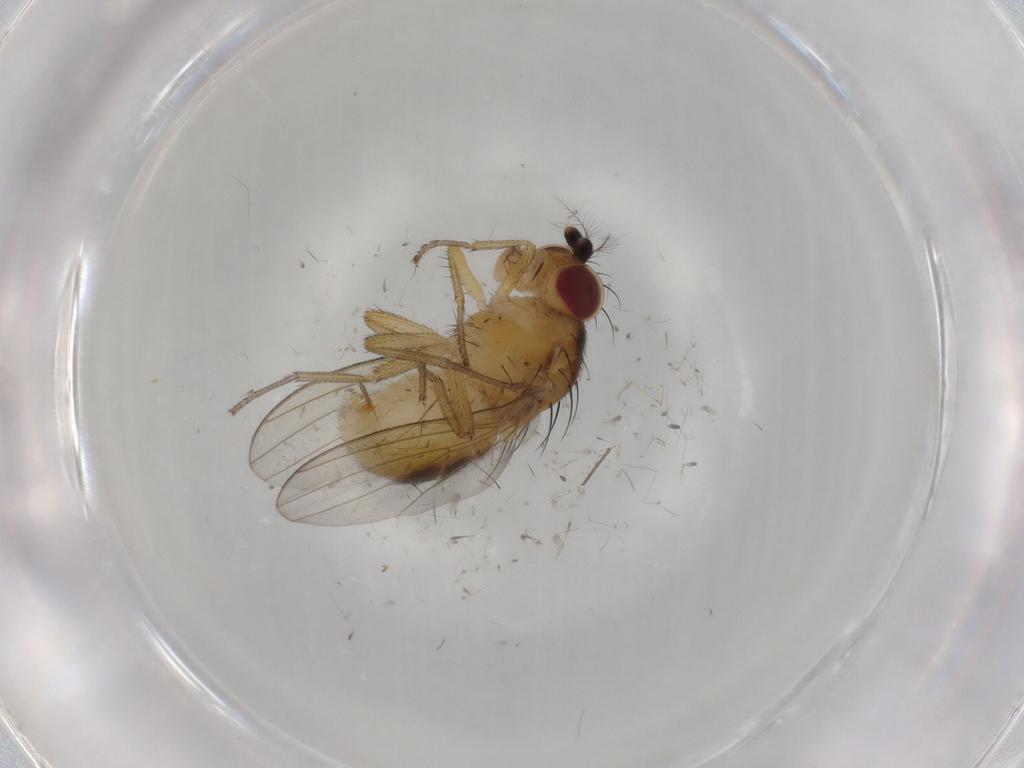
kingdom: Animalia
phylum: Arthropoda
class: Insecta
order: Diptera
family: Lauxaniidae
